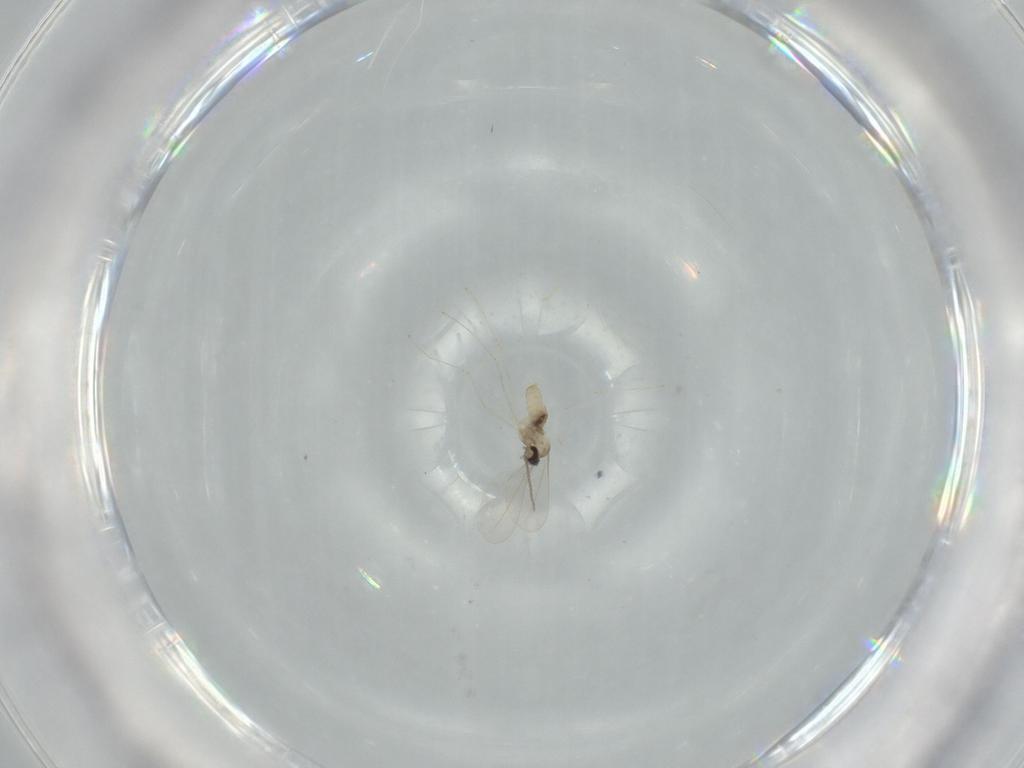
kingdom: Animalia
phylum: Arthropoda
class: Insecta
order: Diptera
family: Cecidomyiidae
